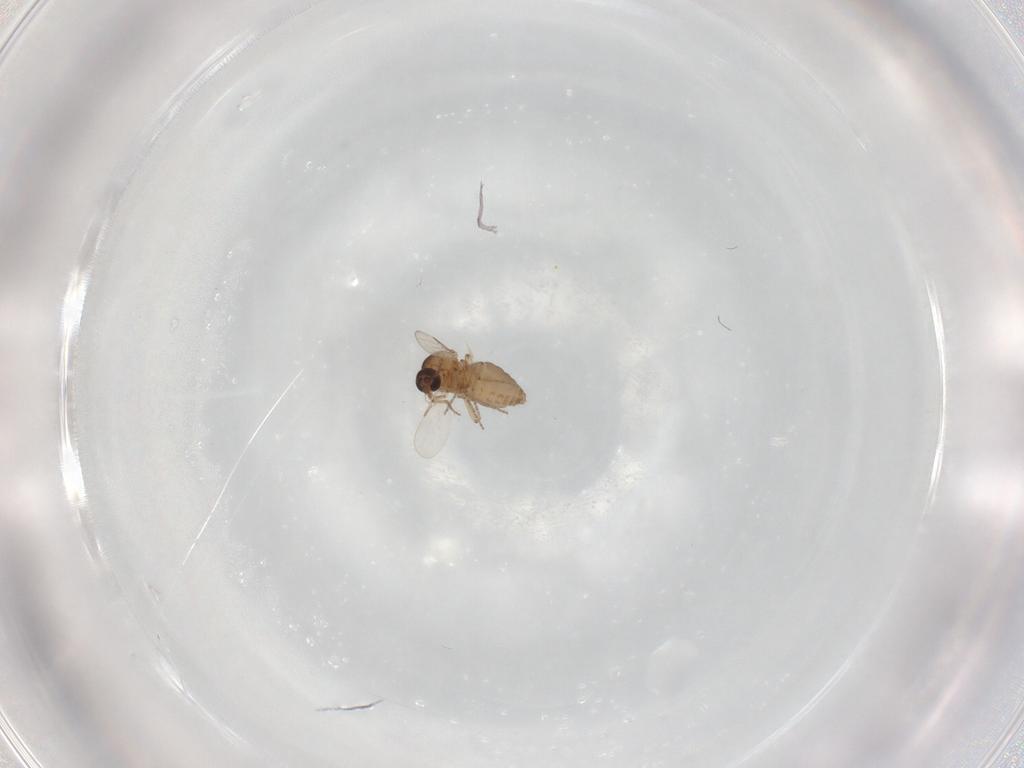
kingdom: Animalia
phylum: Arthropoda
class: Insecta
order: Diptera
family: Ceratopogonidae
